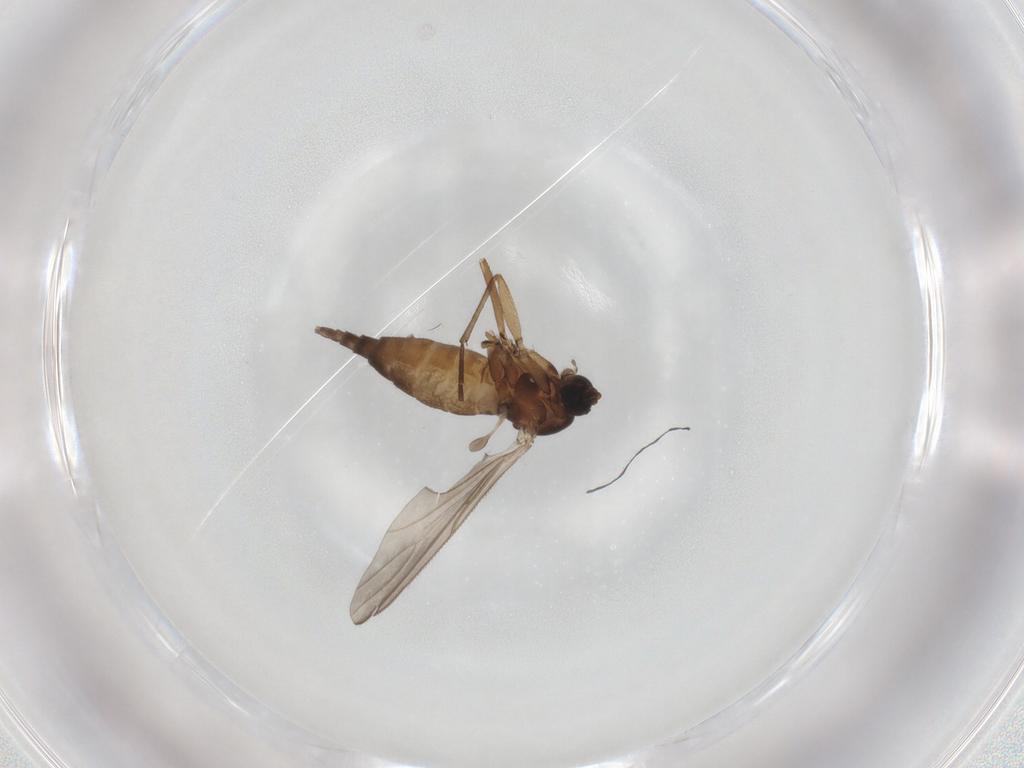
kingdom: Animalia
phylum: Arthropoda
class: Insecta
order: Diptera
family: Sciaridae
